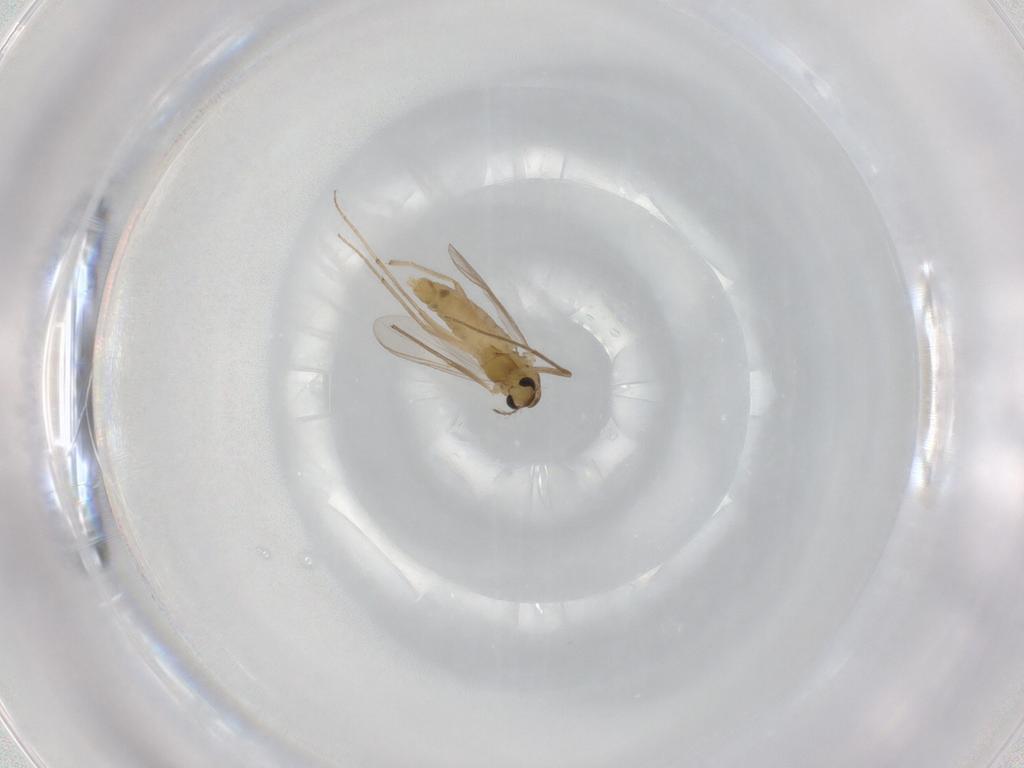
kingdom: Animalia
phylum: Arthropoda
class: Insecta
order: Diptera
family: Chironomidae
